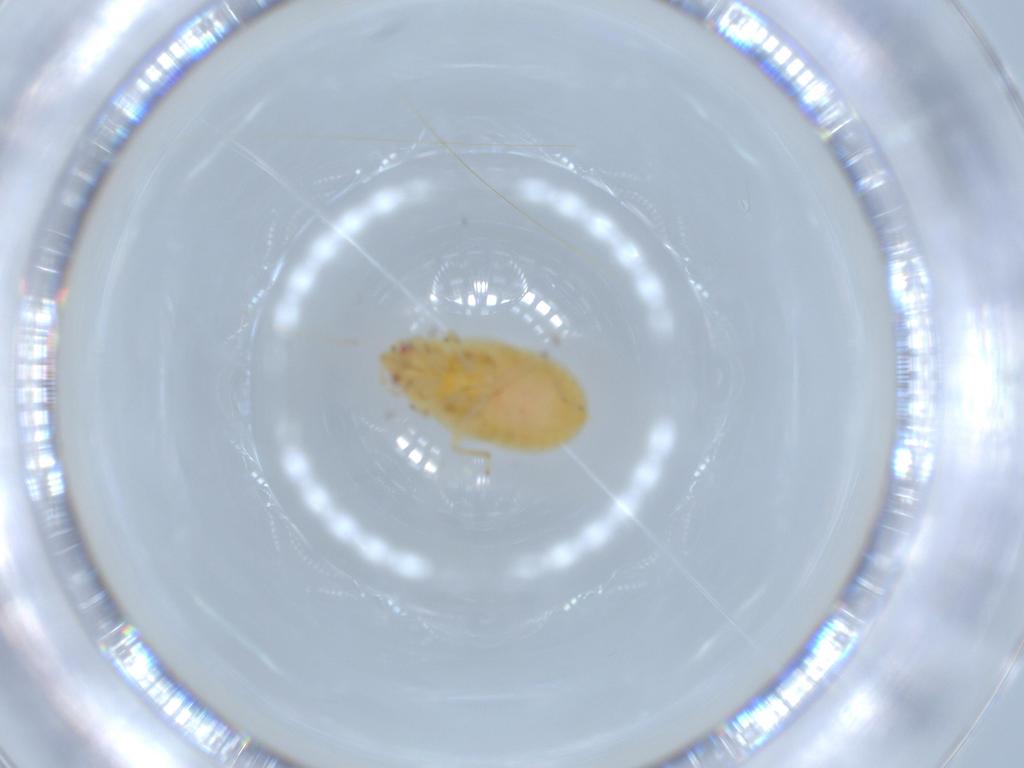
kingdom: Animalia
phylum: Arthropoda
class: Insecta
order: Hemiptera
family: Anthocoridae
